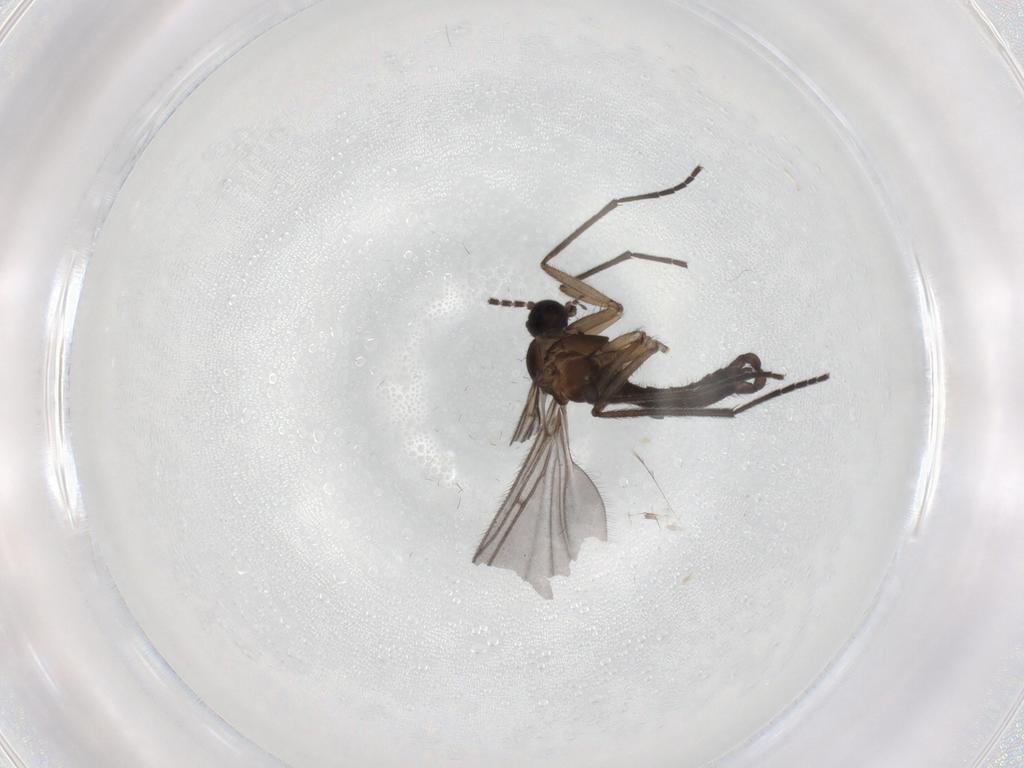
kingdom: Animalia
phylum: Arthropoda
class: Insecta
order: Diptera
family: Sciaridae
